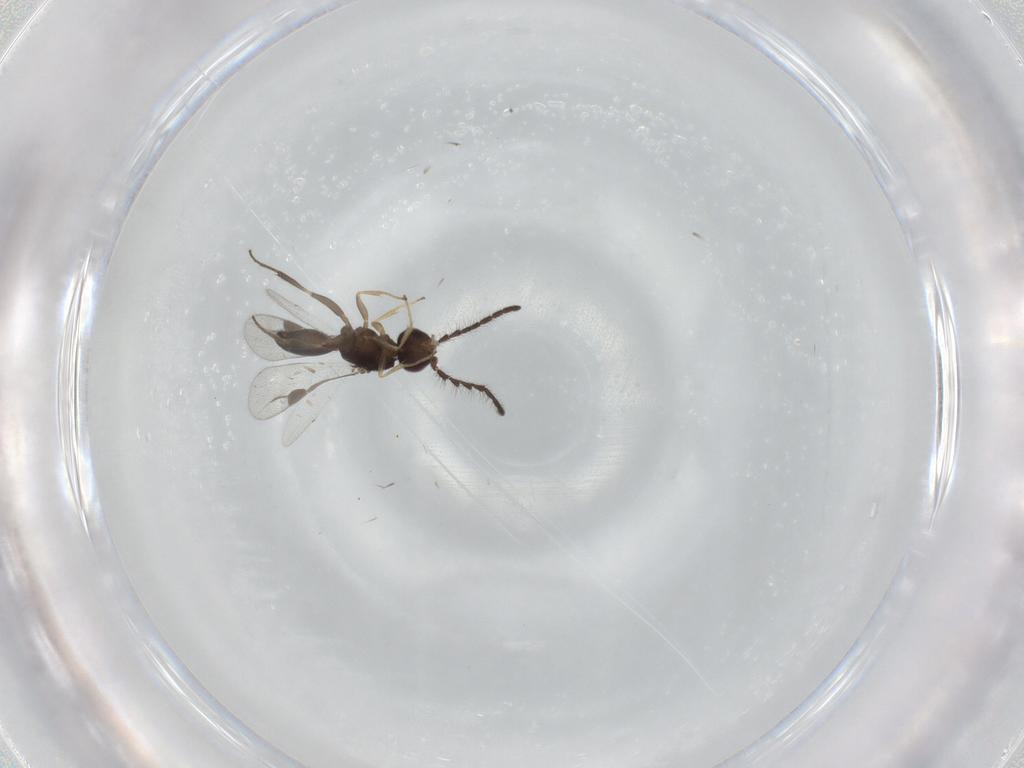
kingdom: Animalia
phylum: Arthropoda
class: Insecta
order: Hymenoptera
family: Megaspilidae
